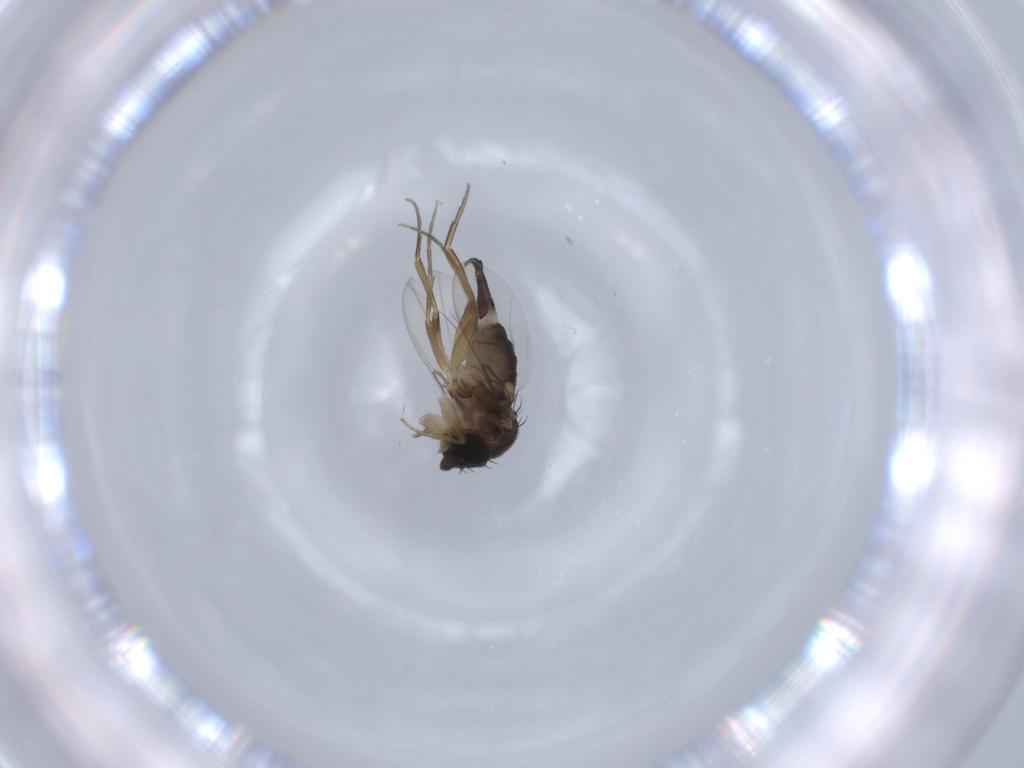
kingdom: Animalia
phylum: Arthropoda
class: Insecta
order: Diptera
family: Phoridae
